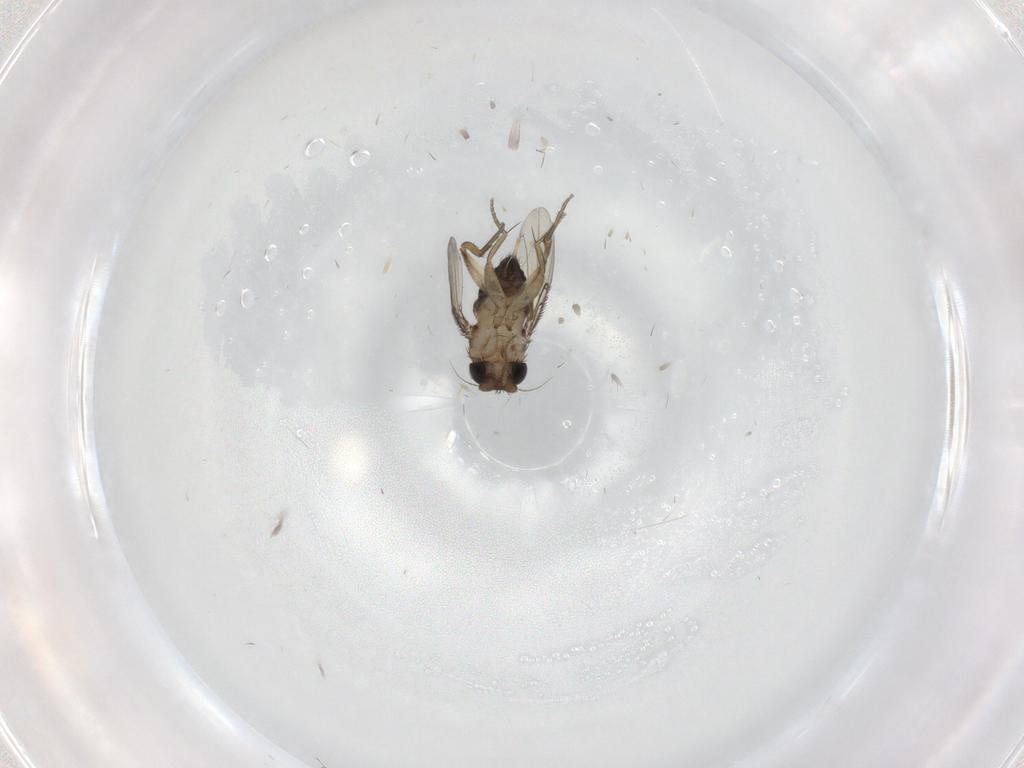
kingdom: Animalia
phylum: Arthropoda
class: Insecta
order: Diptera
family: Phoridae
